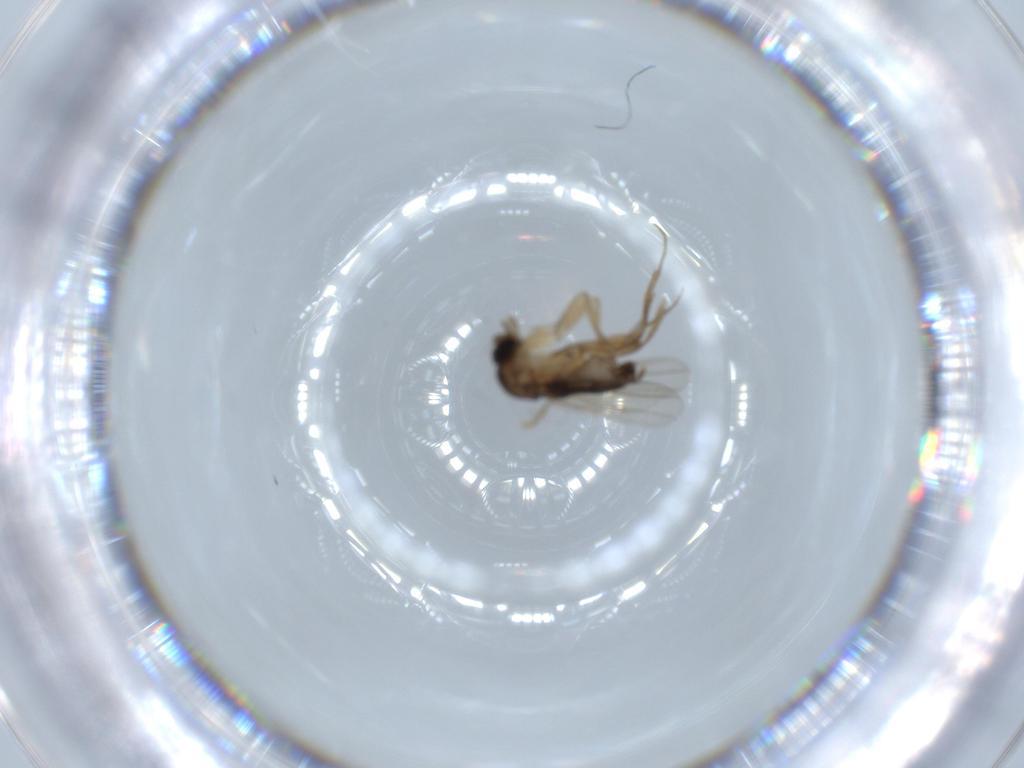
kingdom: Animalia
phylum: Arthropoda
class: Insecta
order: Diptera
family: Phoridae
